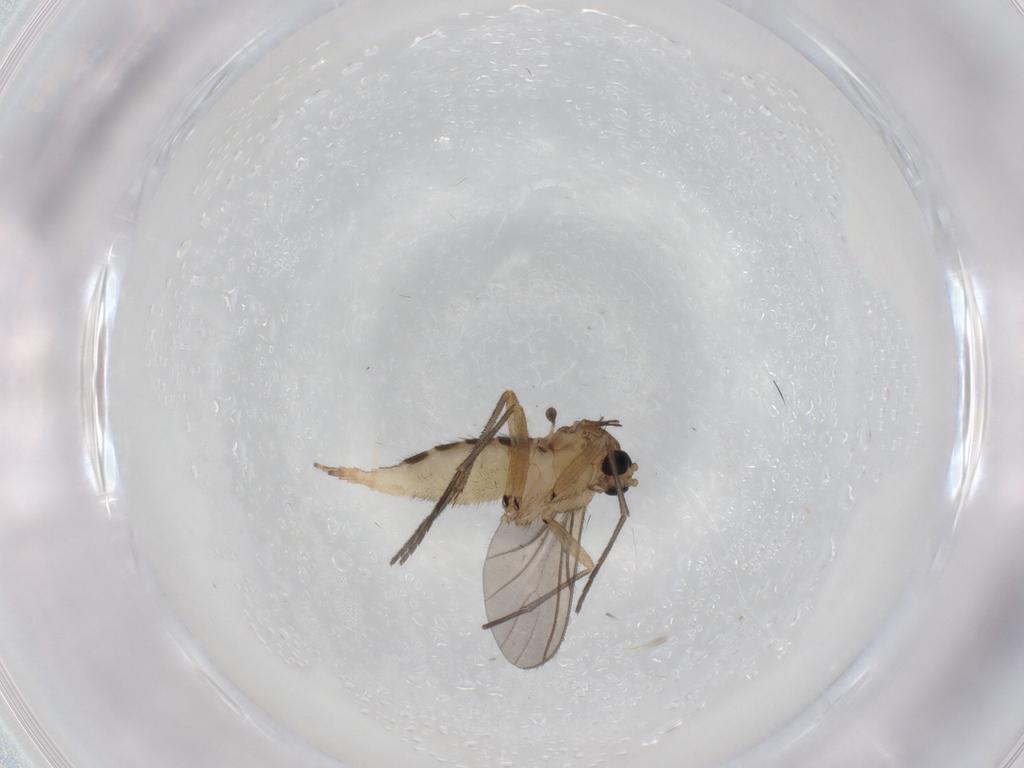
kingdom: Animalia
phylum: Arthropoda
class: Insecta
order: Diptera
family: Sciaridae
